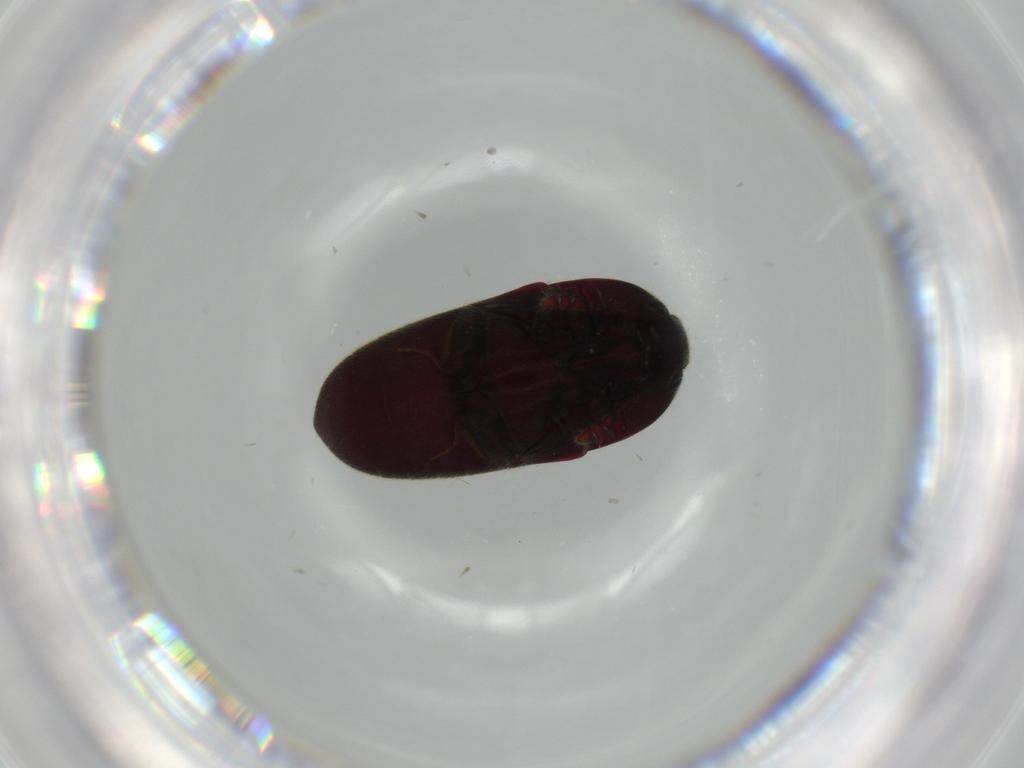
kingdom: Animalia
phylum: Arthropoda
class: Insecta
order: Coleoptera
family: Throscidae
